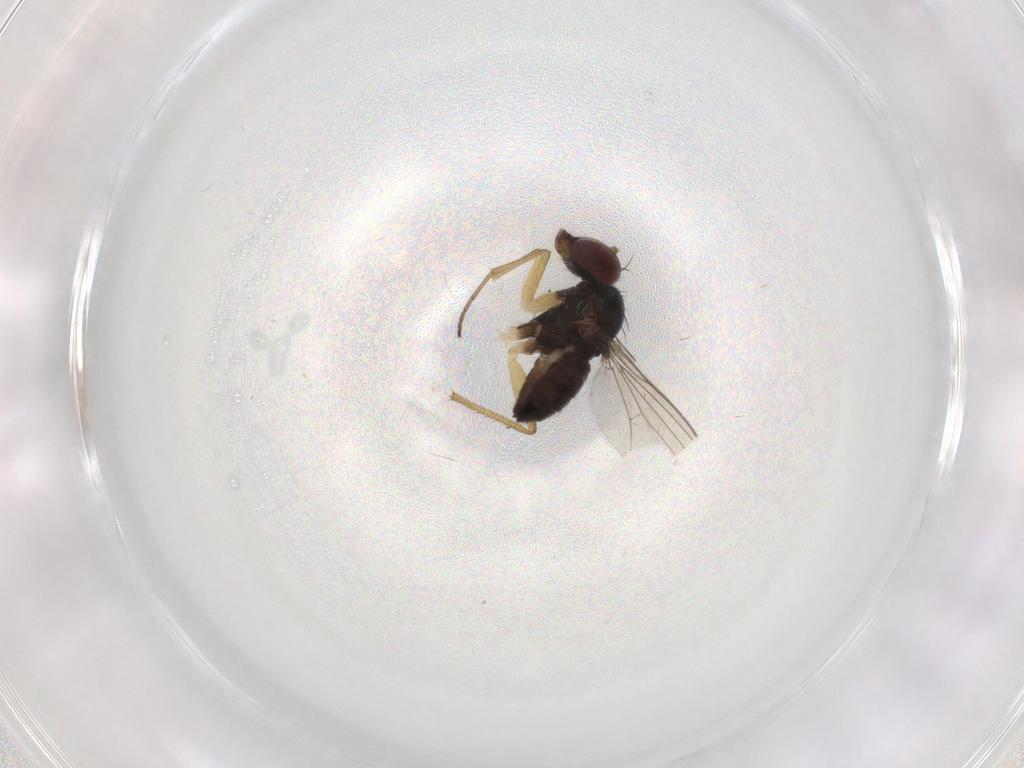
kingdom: Animalia
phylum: Arthropoda
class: Insecta
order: Diptera
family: Dolichopodidae
